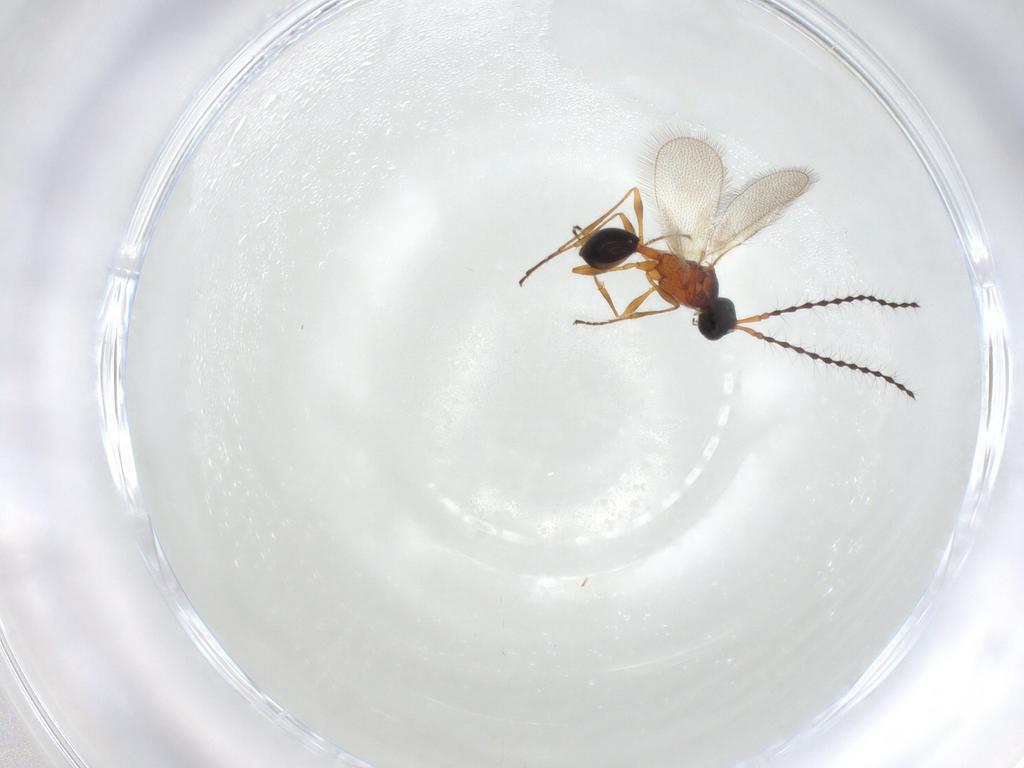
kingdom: Animalia
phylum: Arthropoda
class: Insecta
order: Hymenoptera
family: Diapriidae
